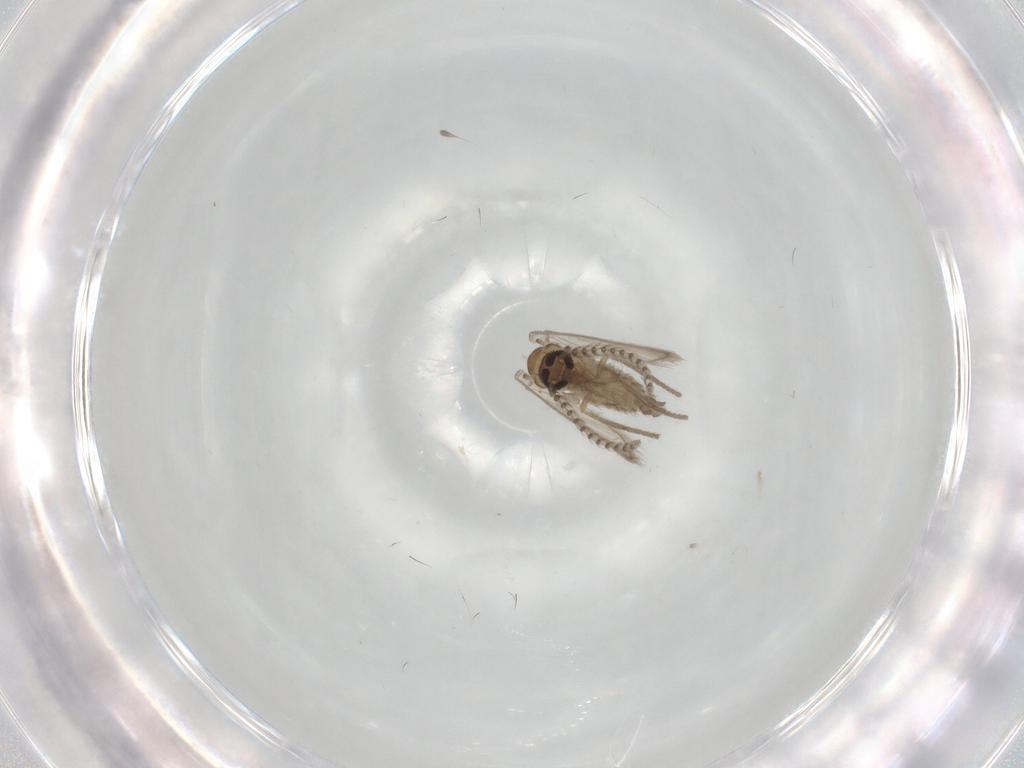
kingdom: Animalia
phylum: Arthropoda
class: Insecta
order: Diptera
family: Psychodidae
